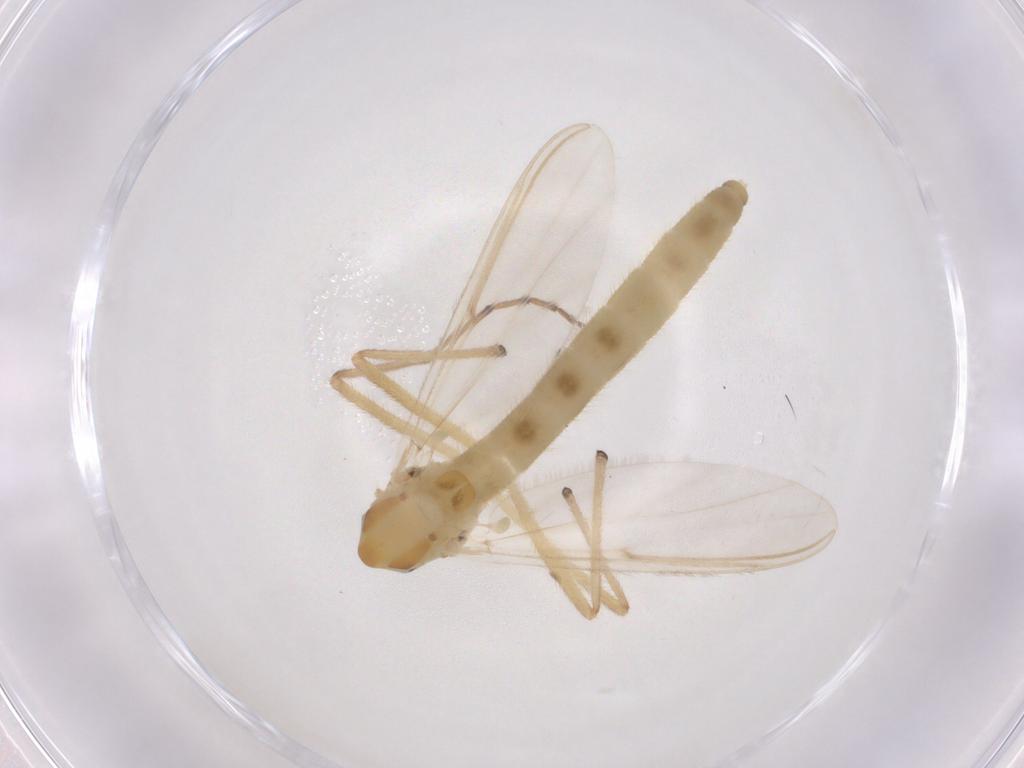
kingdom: Animalia
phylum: Arthropoda
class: Insecta
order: Diptera
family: Chironomidae
